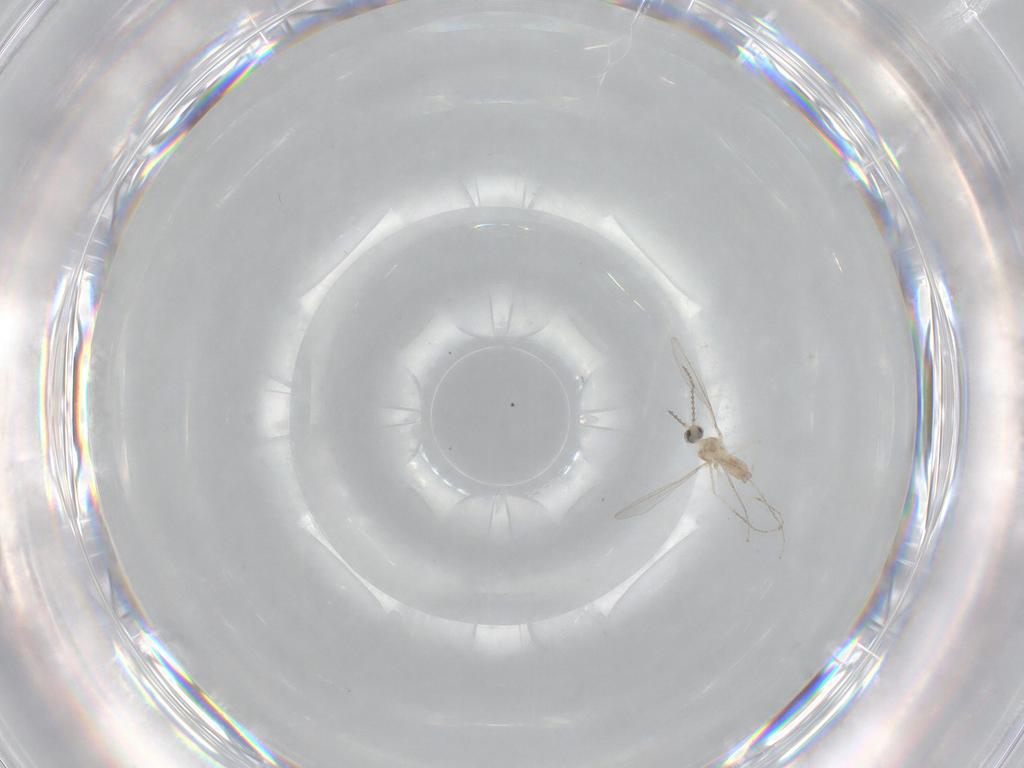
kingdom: Animalia
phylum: Arthropoda
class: Insecta
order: Diptera
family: Cecidomyiidae
